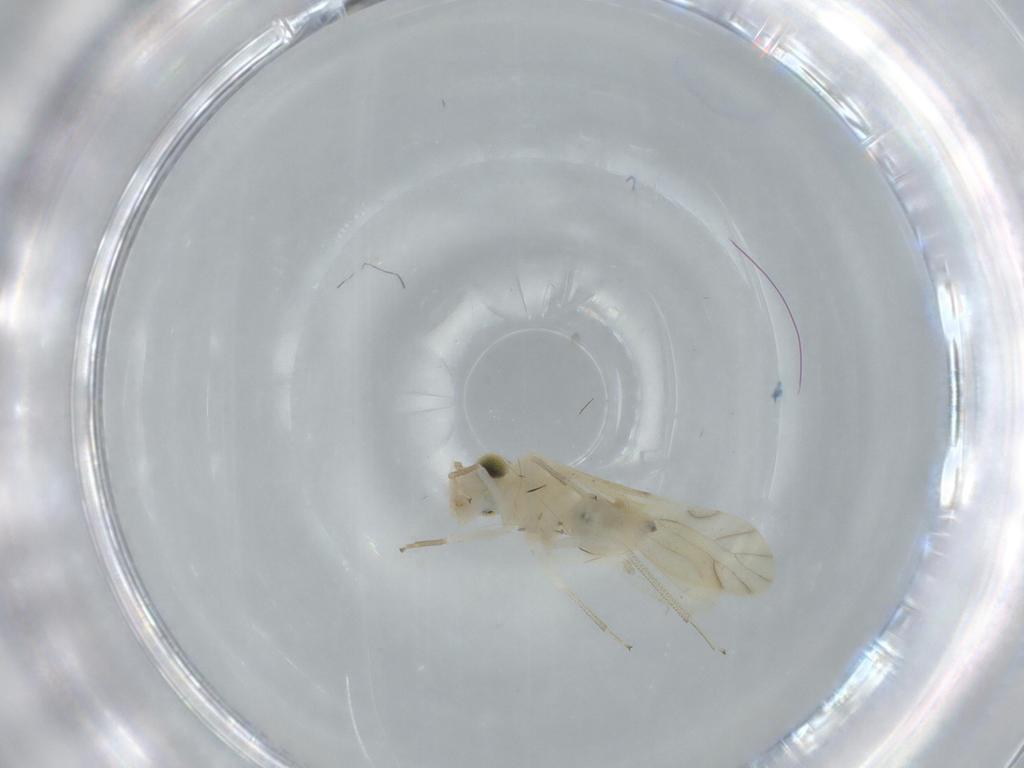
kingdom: Animalia
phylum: Arthropoda
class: Insecta
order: Psocodea
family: Caeciliusidae
